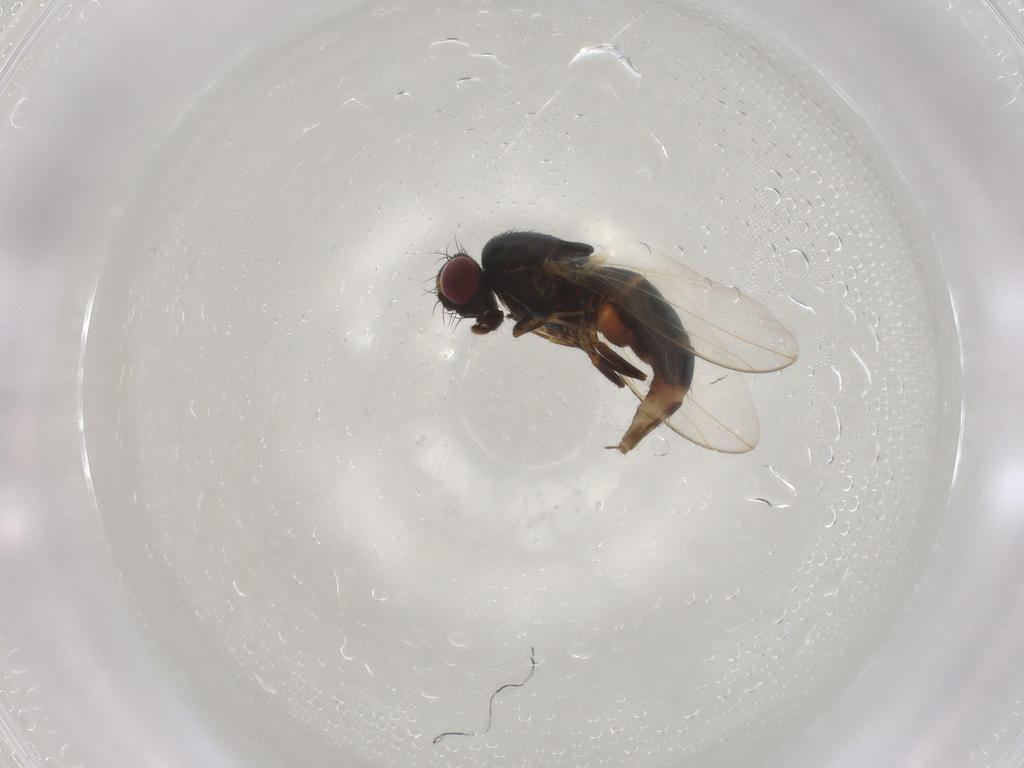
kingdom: Animalia
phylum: Arthropoda
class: Insecta
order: Diptera
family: Carnidae
